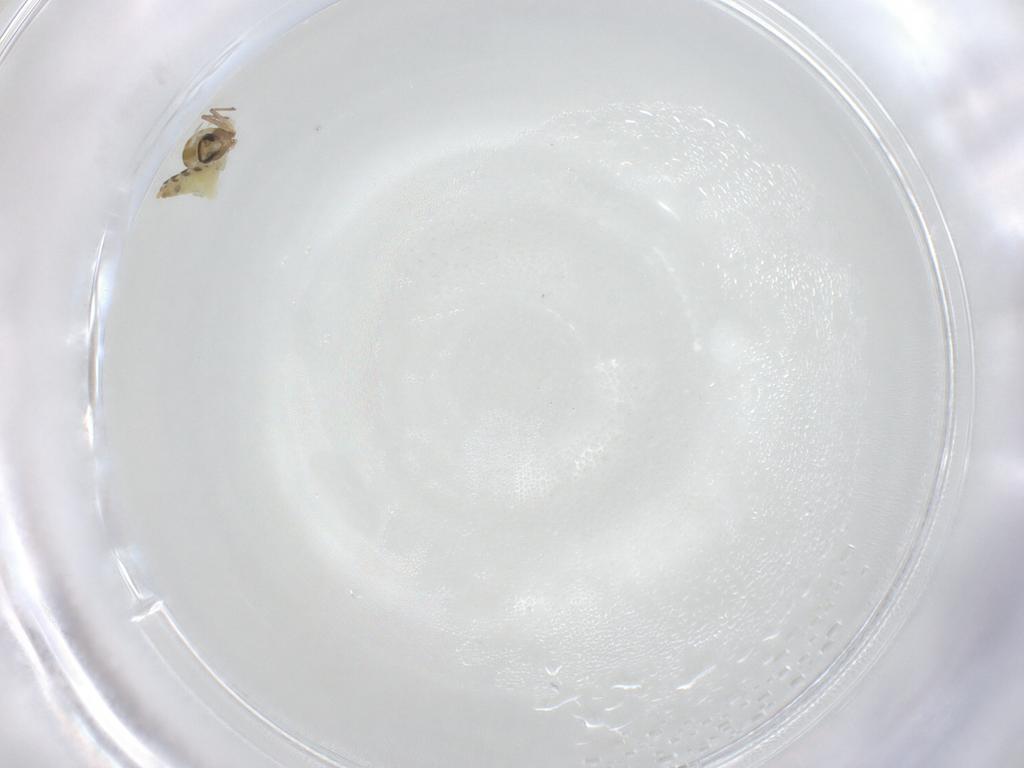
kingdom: Animalia
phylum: Arthropoda
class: Insecta
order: Diptera
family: Chironomidae
